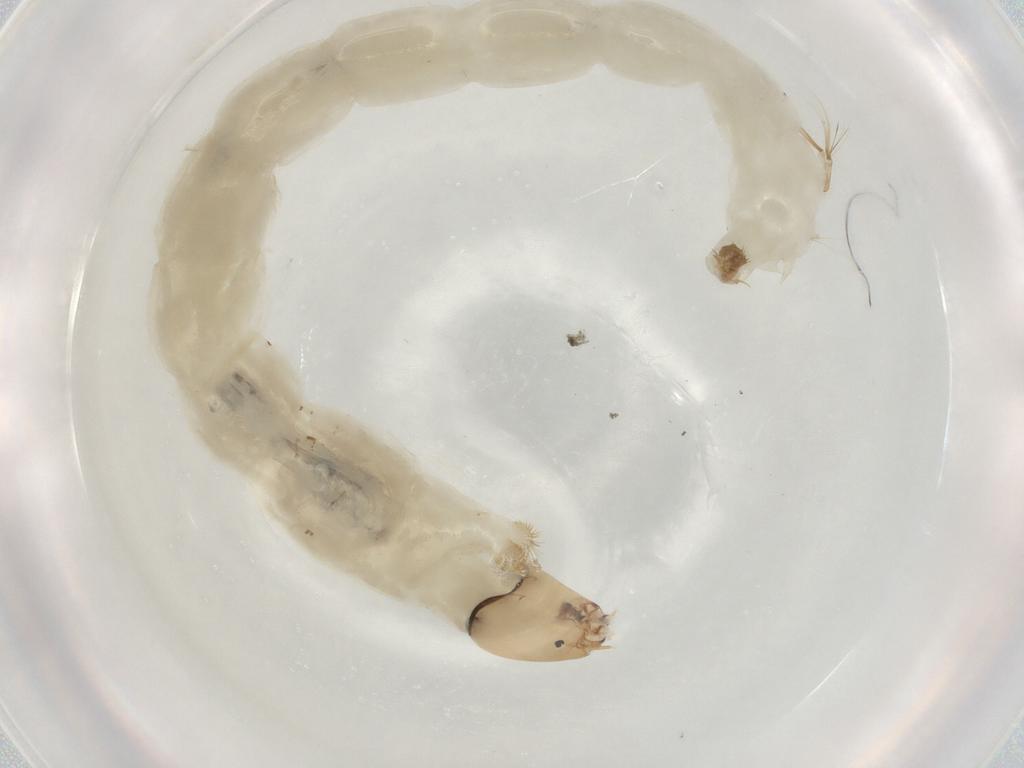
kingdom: Animalia
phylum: Arthropoda
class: Insecta
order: Diptera
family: Chironomidae
